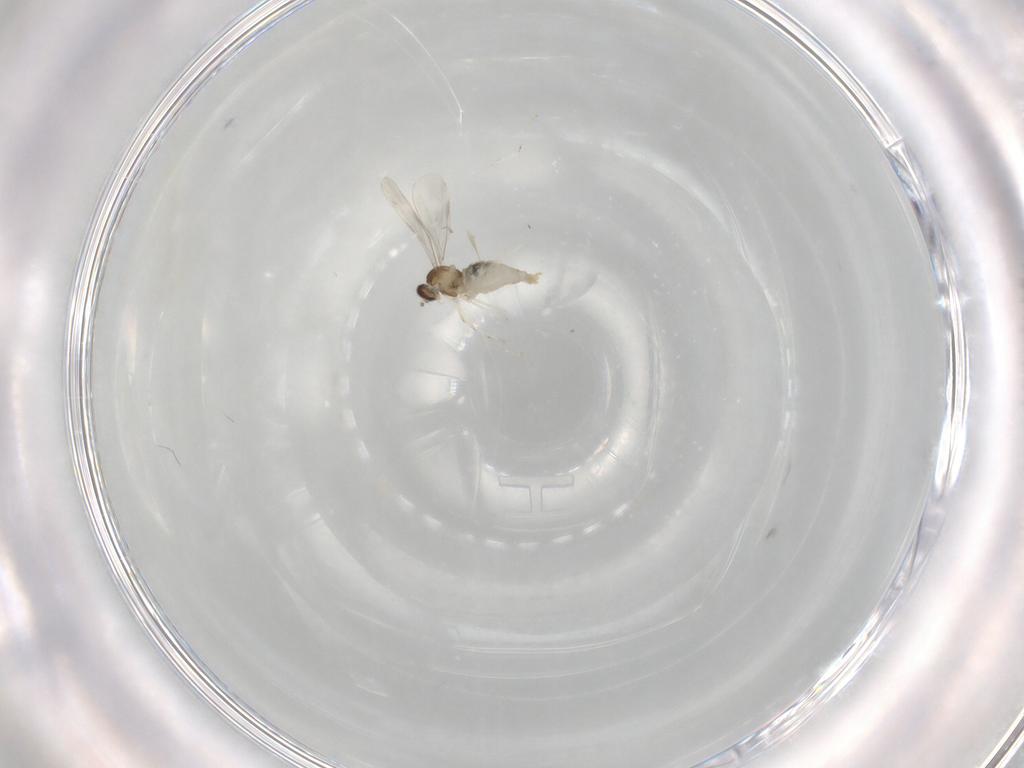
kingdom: Animalia
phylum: Arthropoda
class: Insecta
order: Diptera
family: Cecidomyiidae
